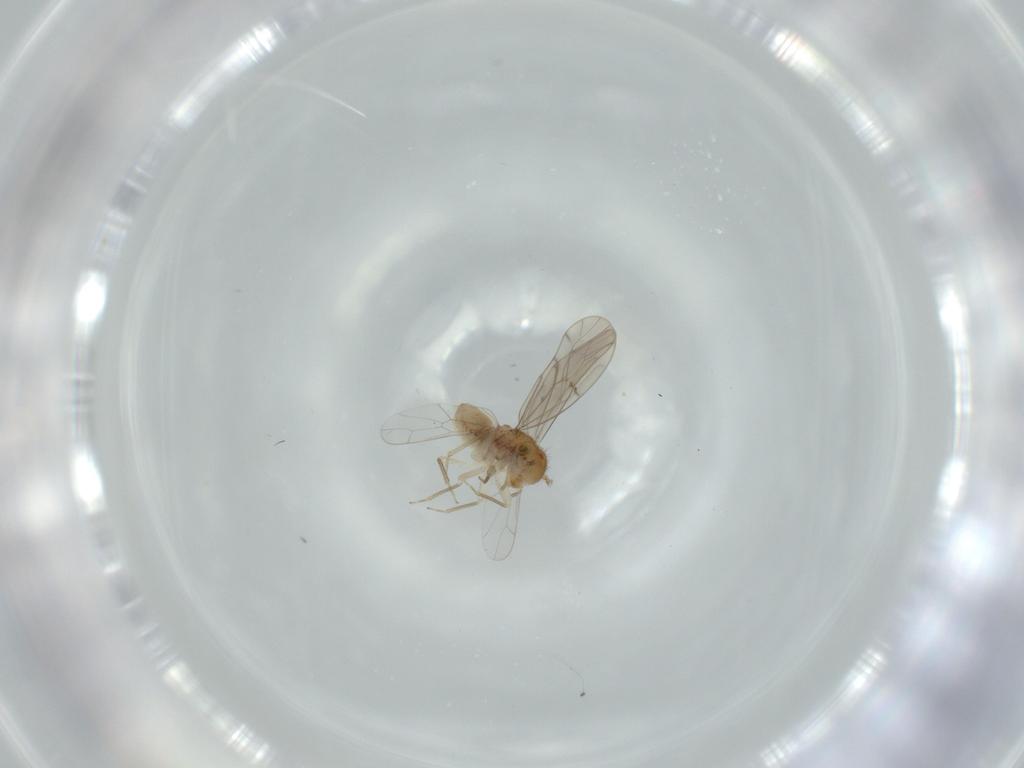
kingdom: Animalia
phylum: Arthropoda
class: Insecta
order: Psocodea
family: Ectopsocidae
